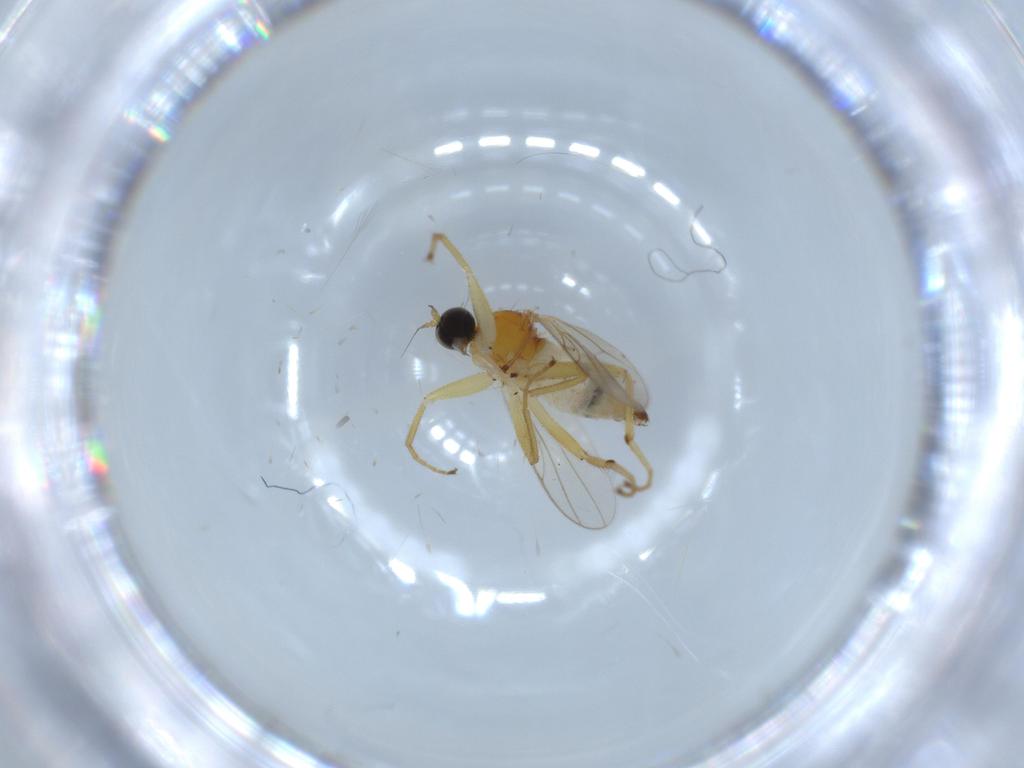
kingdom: Animalia
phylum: Arthropoda
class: Insecta
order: Diptera
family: Hybotidae
